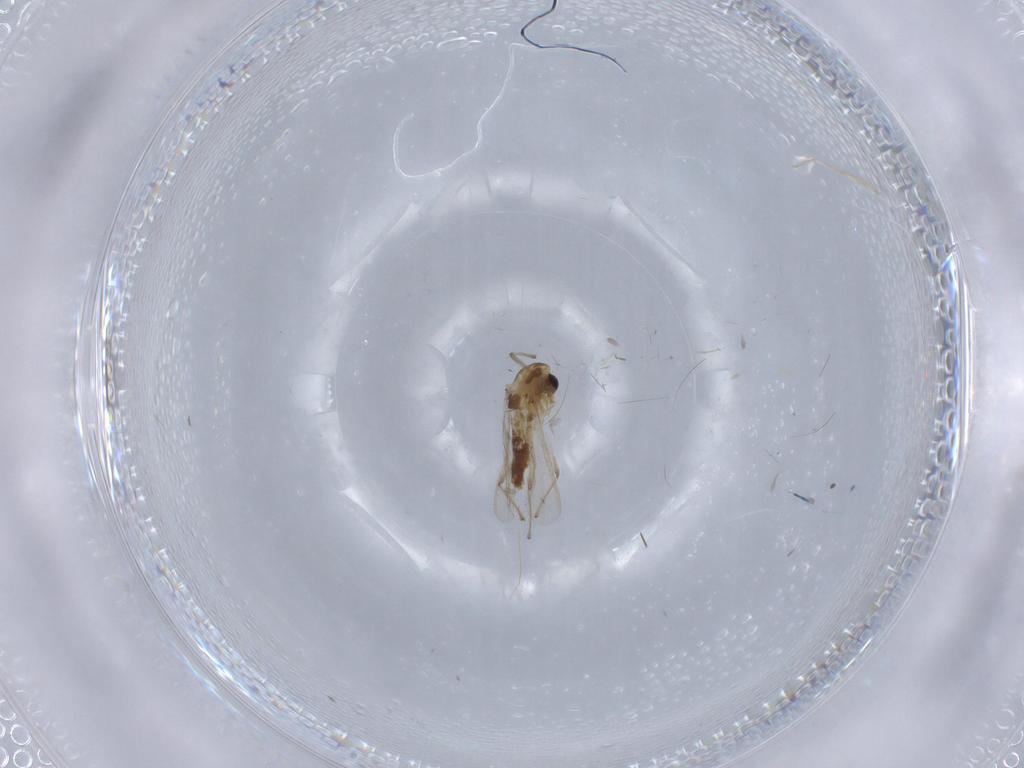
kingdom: Animalia
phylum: Arthropoda
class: Insecta
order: Diptera
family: Chironomidae
